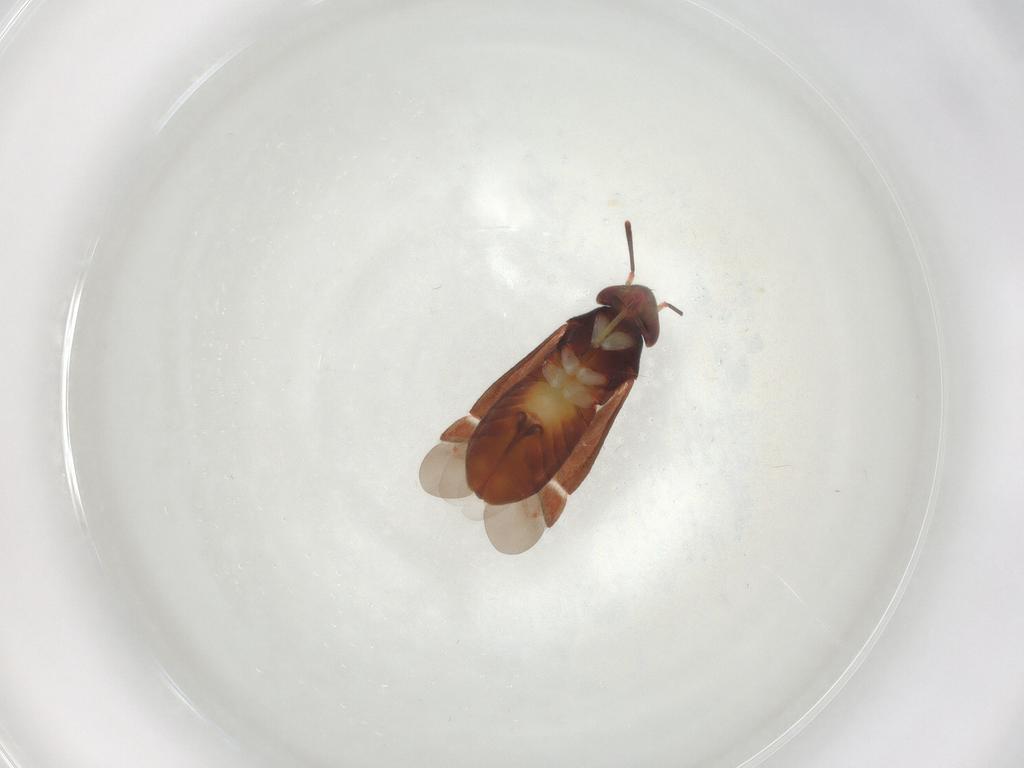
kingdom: Animalia
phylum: Arthropoda
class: Insecta
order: Hemiptera
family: Miridae
